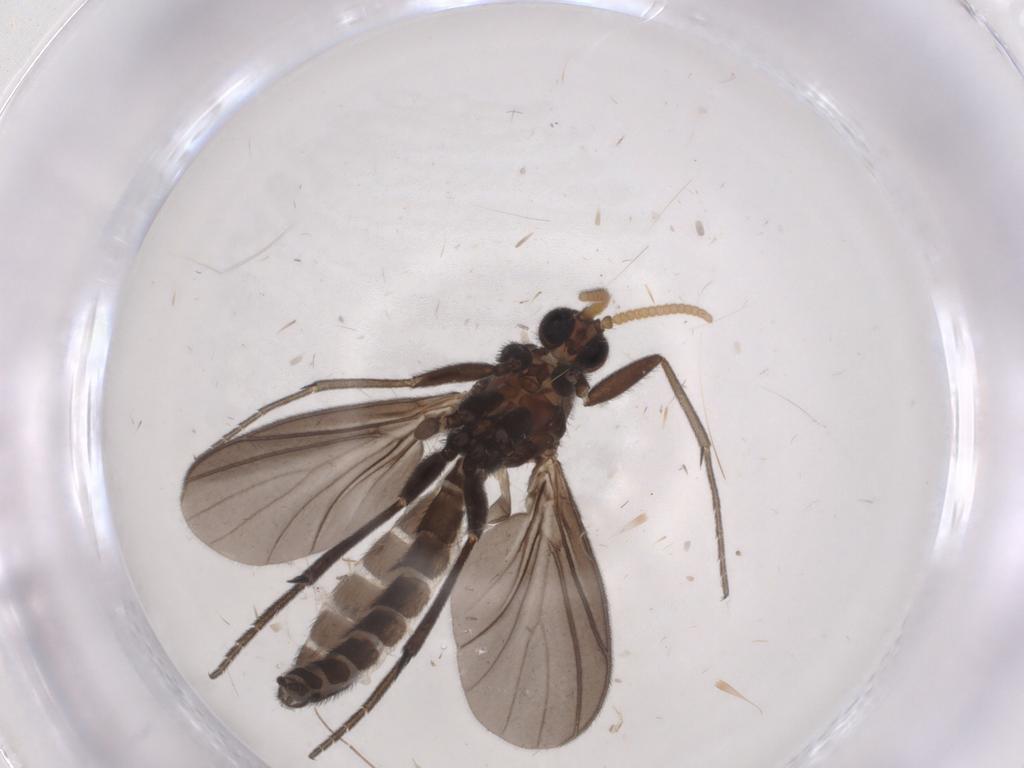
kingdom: Animalia
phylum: Arthropoda
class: Insecta
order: Diptera
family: Mycetophilidae
